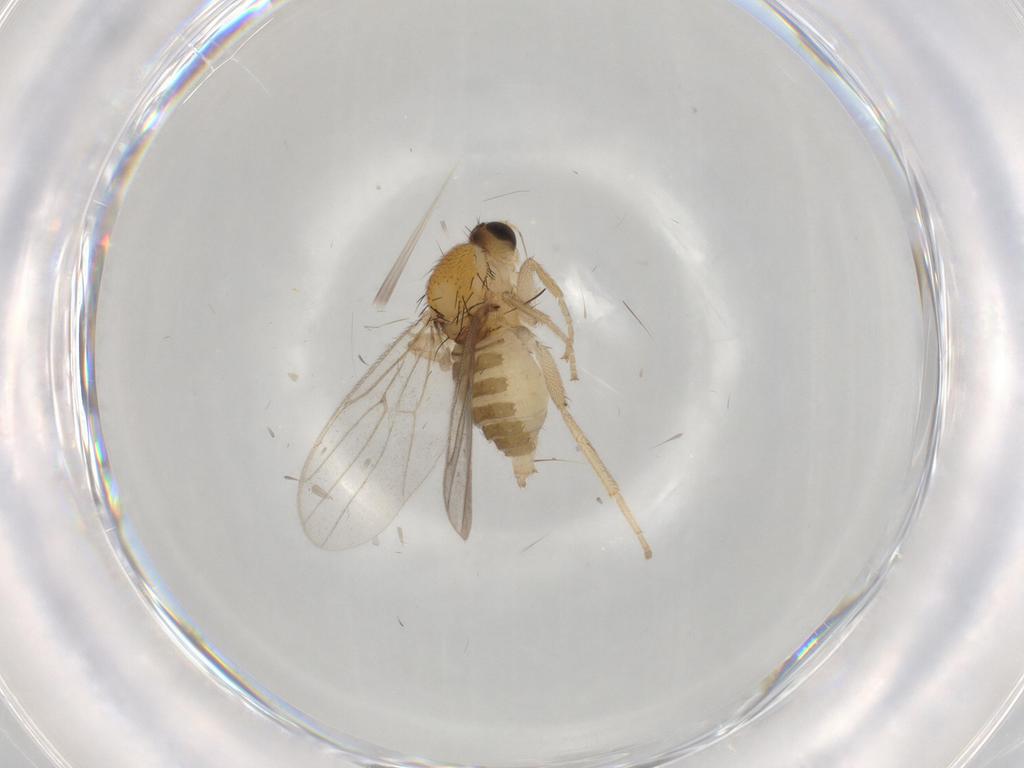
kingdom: Animalia
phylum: Arthropoda
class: Insecta
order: Diptera
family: Hybotidae
